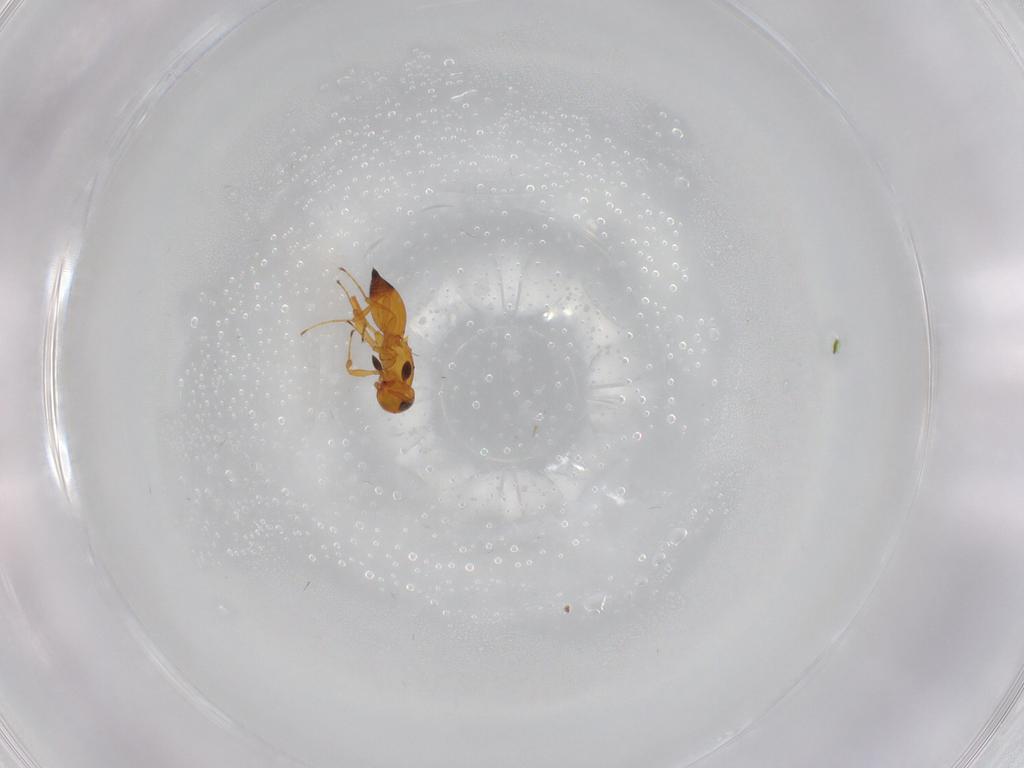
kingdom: Animalia
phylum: Arthropoda
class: Insecta
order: Hymenoptera
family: Platygastridae
